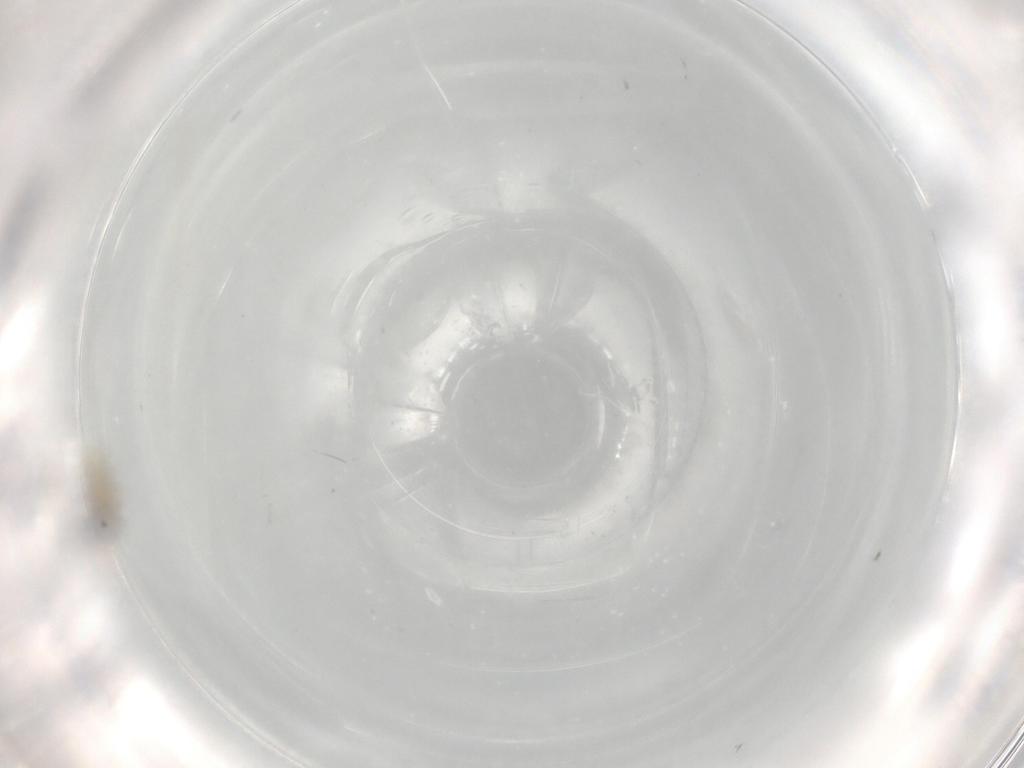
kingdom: Animalia
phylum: Arthropoda
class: Insecta
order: Diptera
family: Cecidomyiidae
